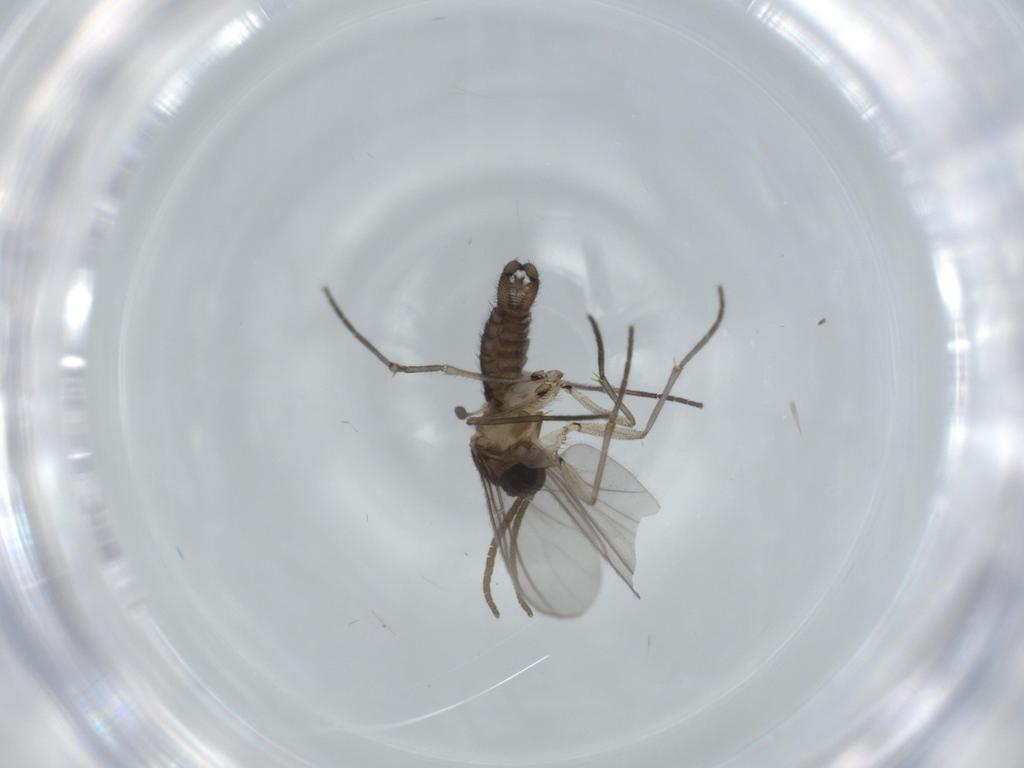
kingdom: Animalia
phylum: Arthropoda
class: Insecta
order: Diptera
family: Sciaridae
